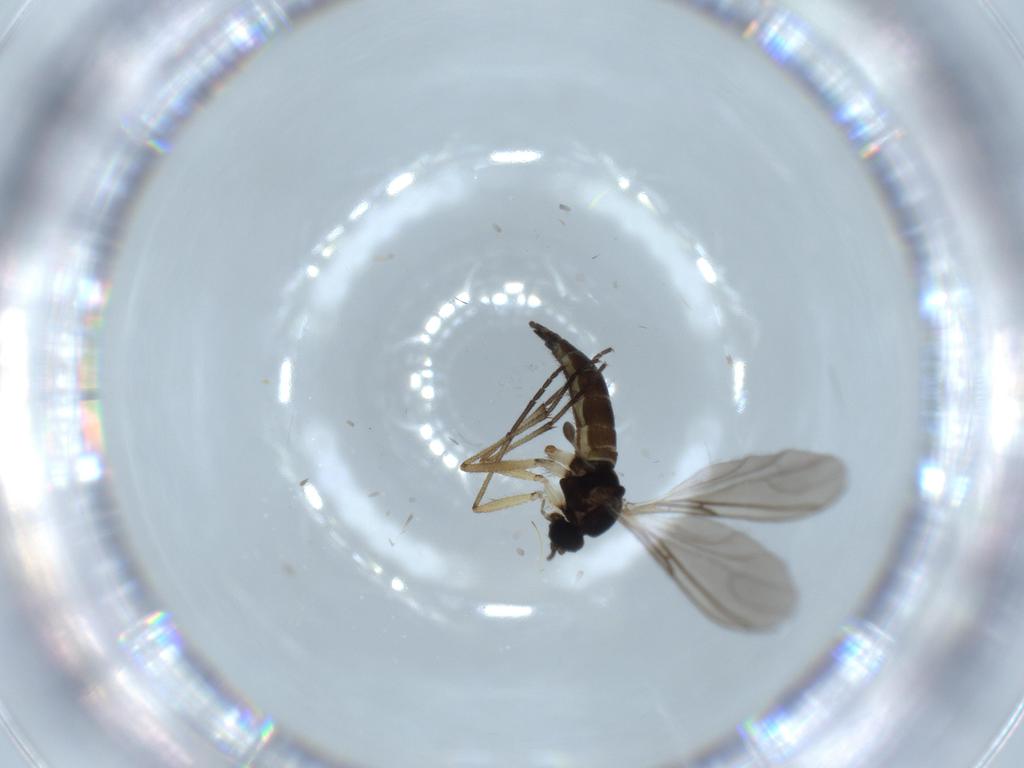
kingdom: Animalia
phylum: Arthropoda
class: Insecta
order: Diptera
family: Sciaridae
